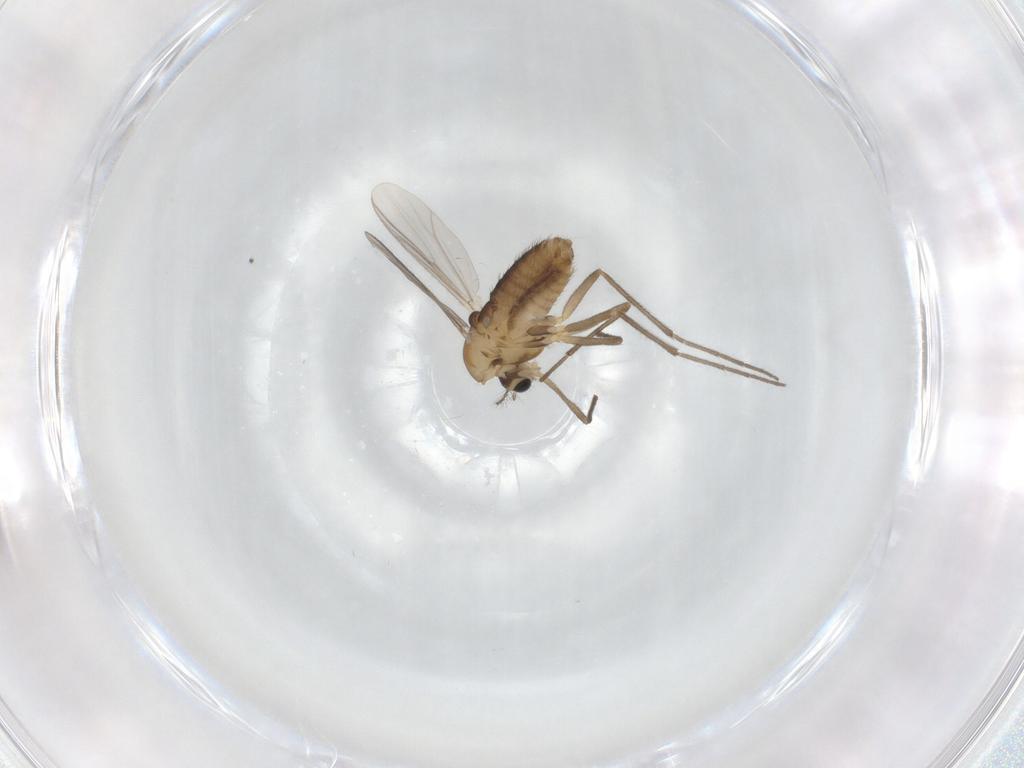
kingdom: Animalia
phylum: Arthropoda
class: Insecta
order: Diptera
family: Chironomidae
